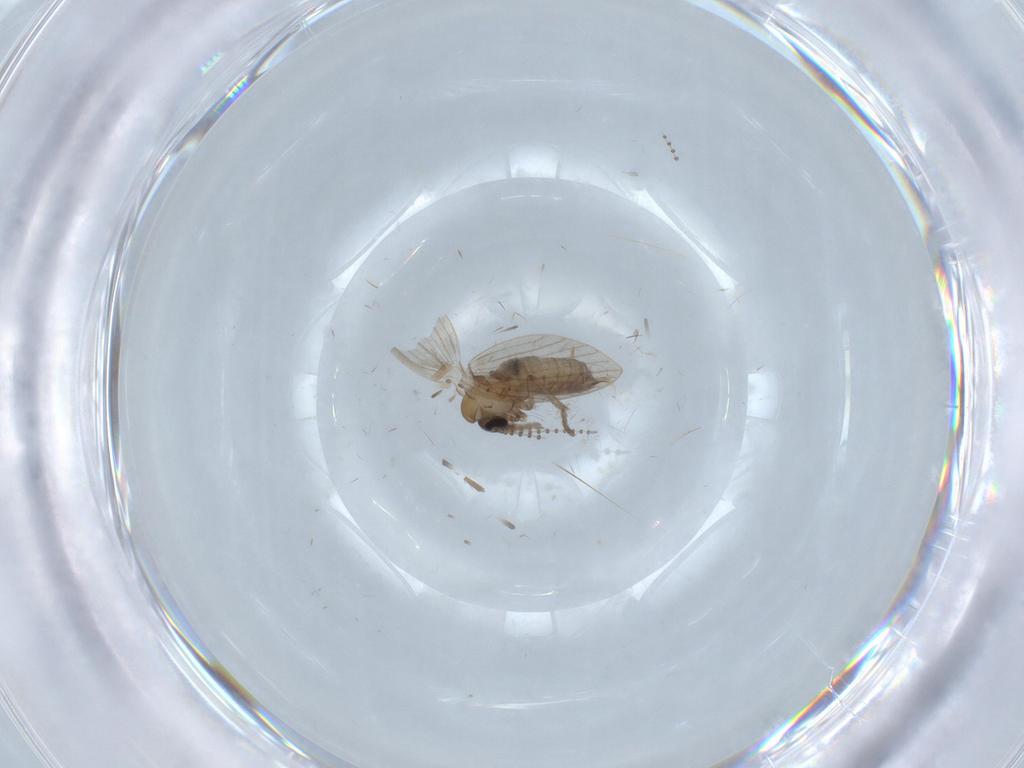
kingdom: Animalia
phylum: Arthropoda
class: Insecta
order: Diptera
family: Psychodidae
